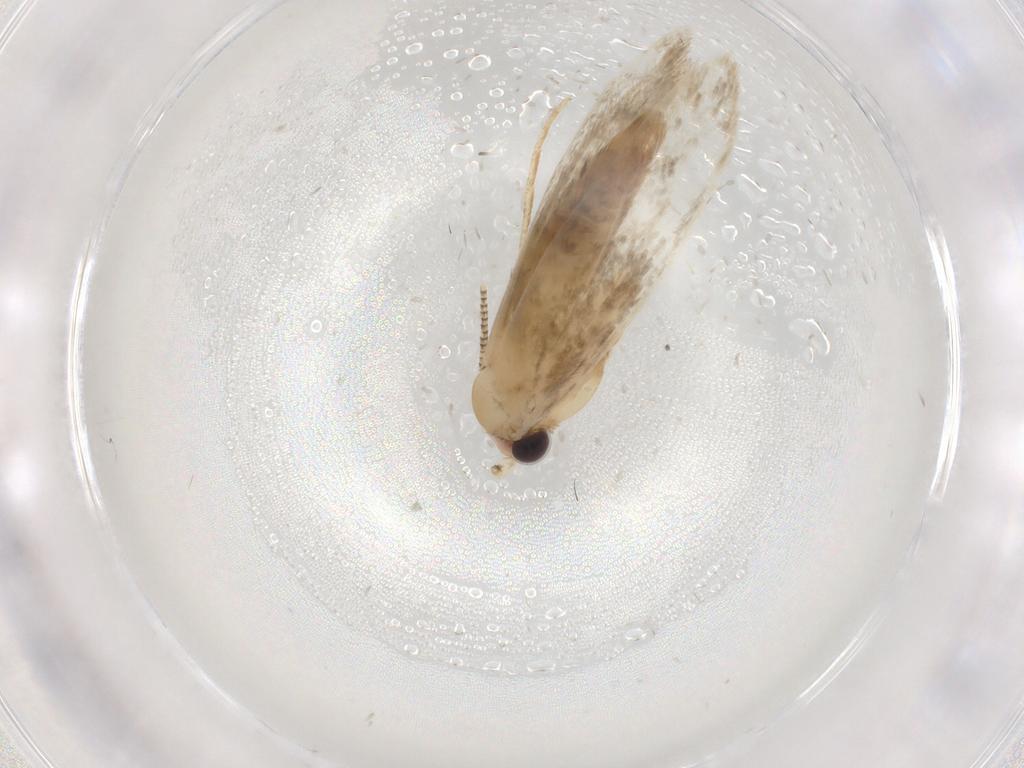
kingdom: Animalia
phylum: Arthropoda
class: Insecta
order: Lepidoptera
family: Tineidae
